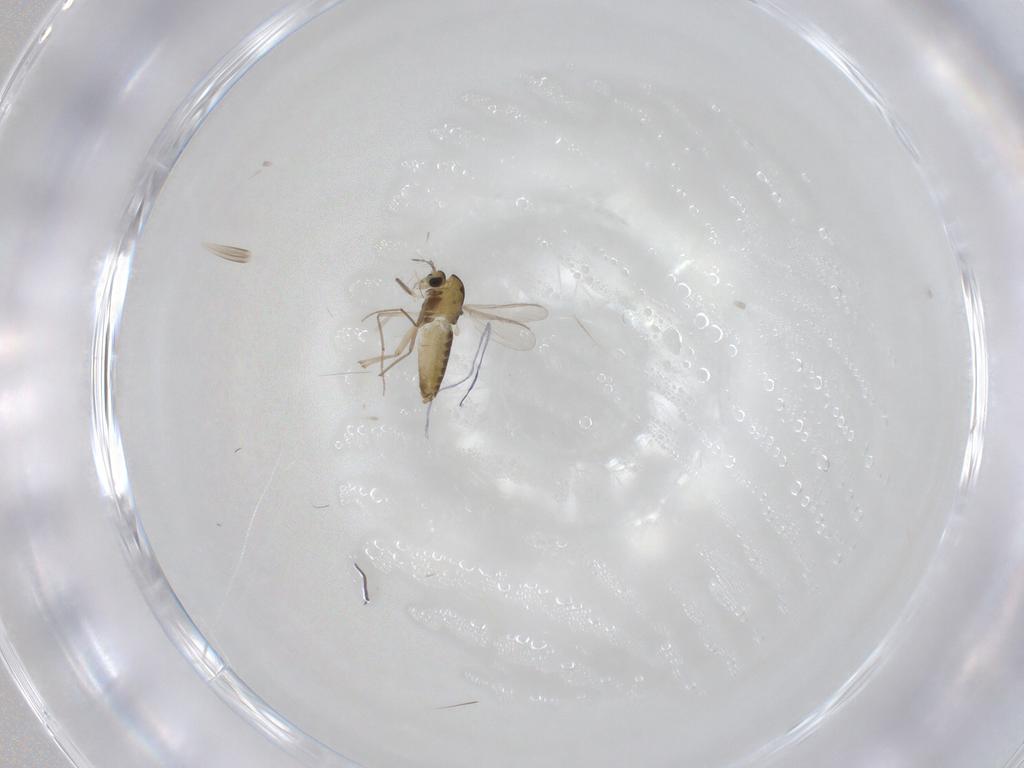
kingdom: Animalia
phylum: Arthropoda
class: Insecta
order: Diptera
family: Chironomidae
